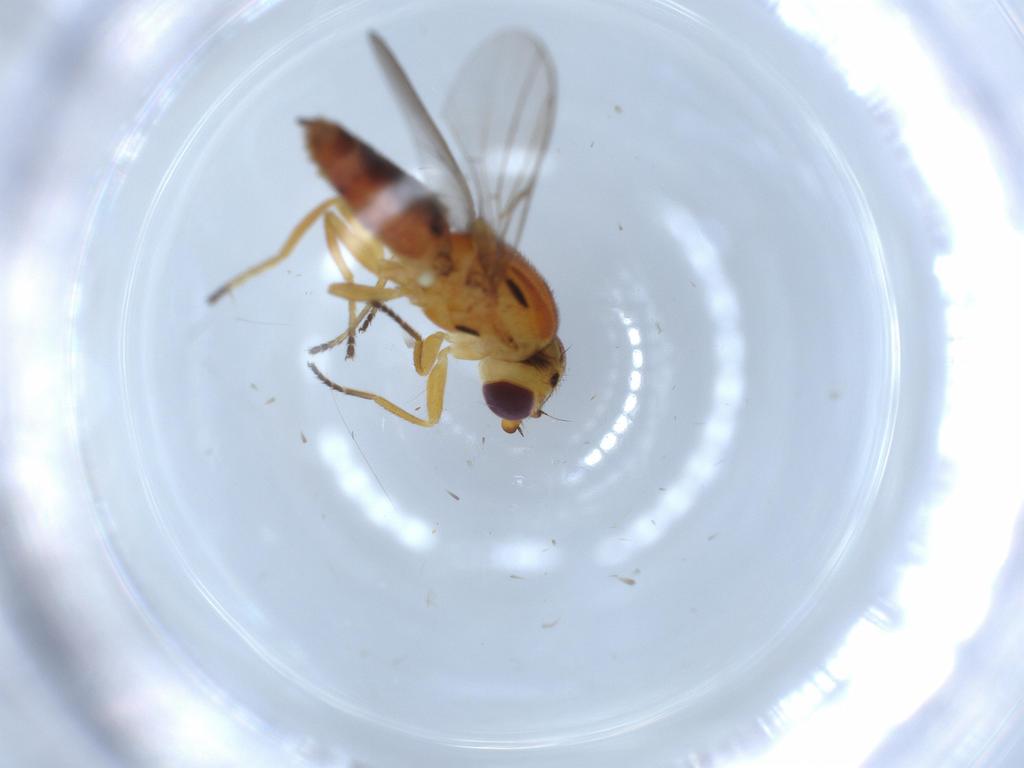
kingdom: Animalia
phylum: Arthropoda
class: Insecta
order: Diptera
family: Chloropidae
